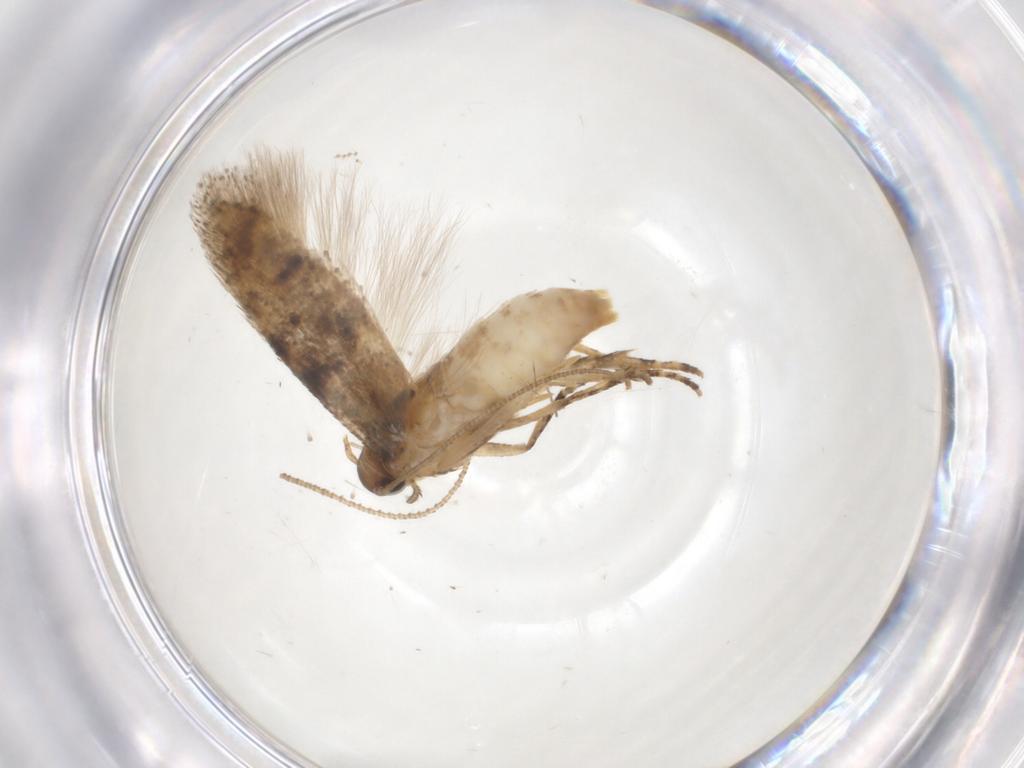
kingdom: Animalia
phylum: Arthropoda
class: Insecta
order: Lepidoptera
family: Gelechiidae
